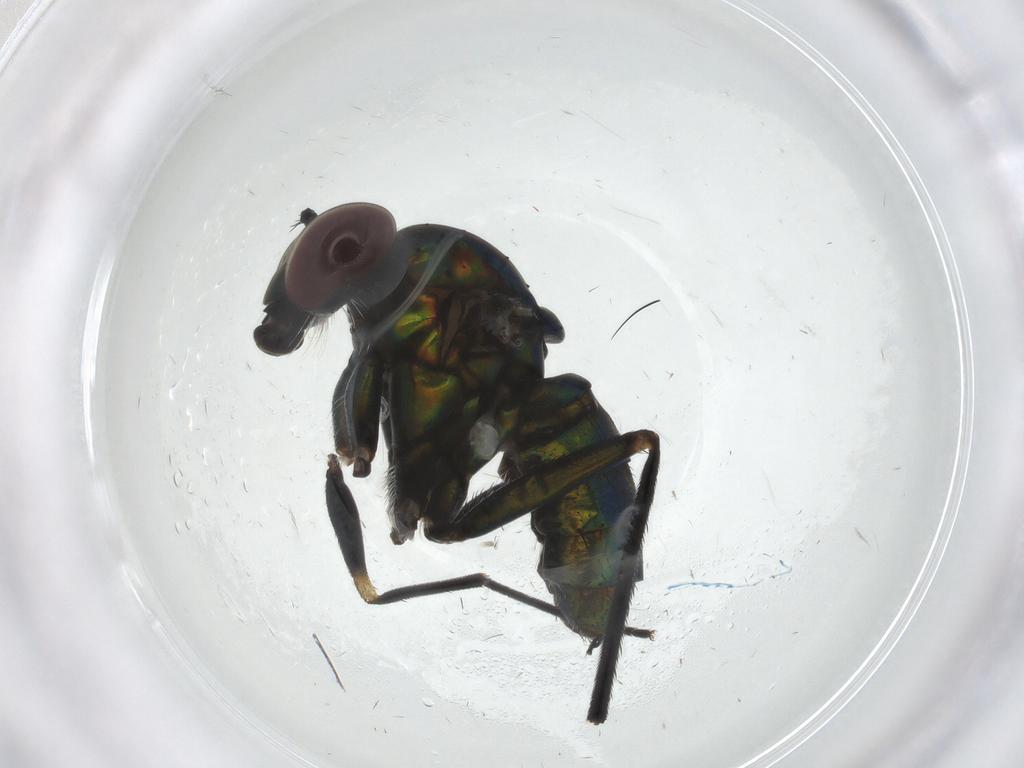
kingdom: Animalia
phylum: Arthropoda
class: Insecta
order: Diptera
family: Dolichopodidae
